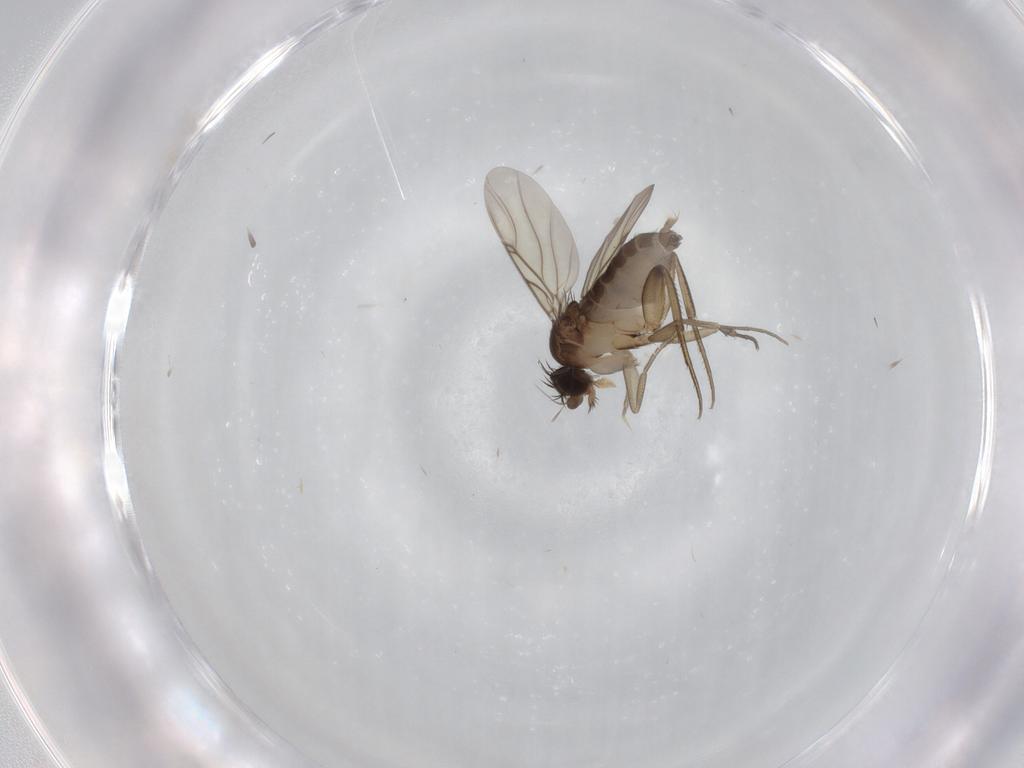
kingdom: Animalia
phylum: Arthropoda
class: Insecta
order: Diptera
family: Phoridae
